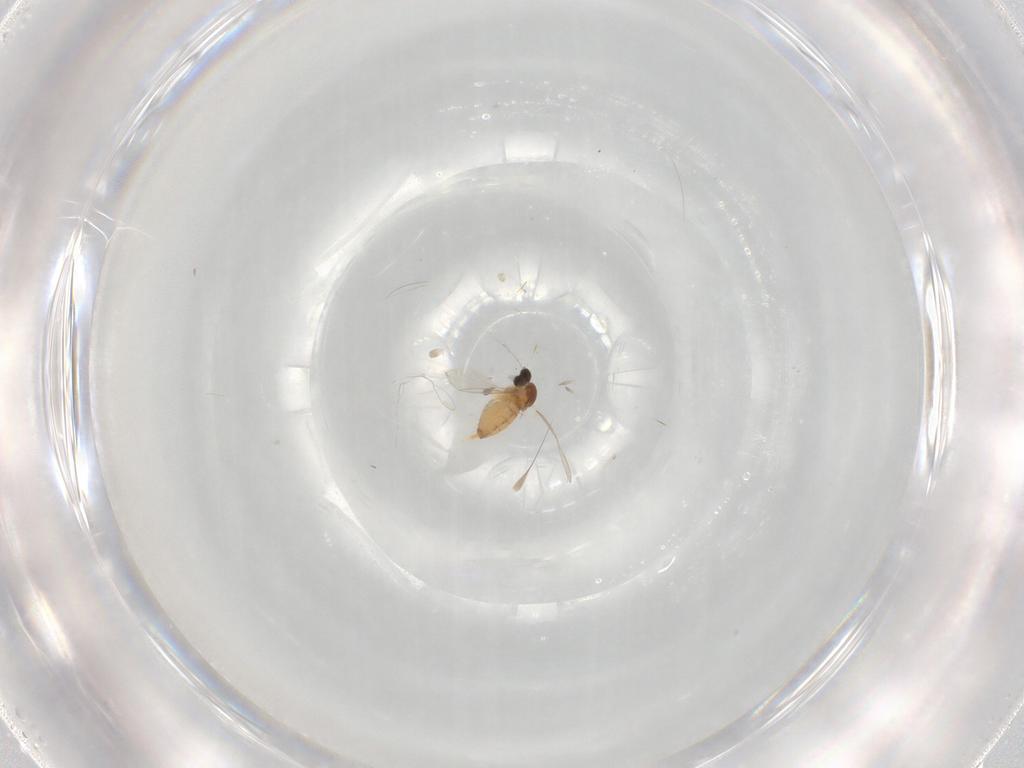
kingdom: Animalia
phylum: Arthropoda
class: Insecta
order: Diptera
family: Cecidomyiidae
